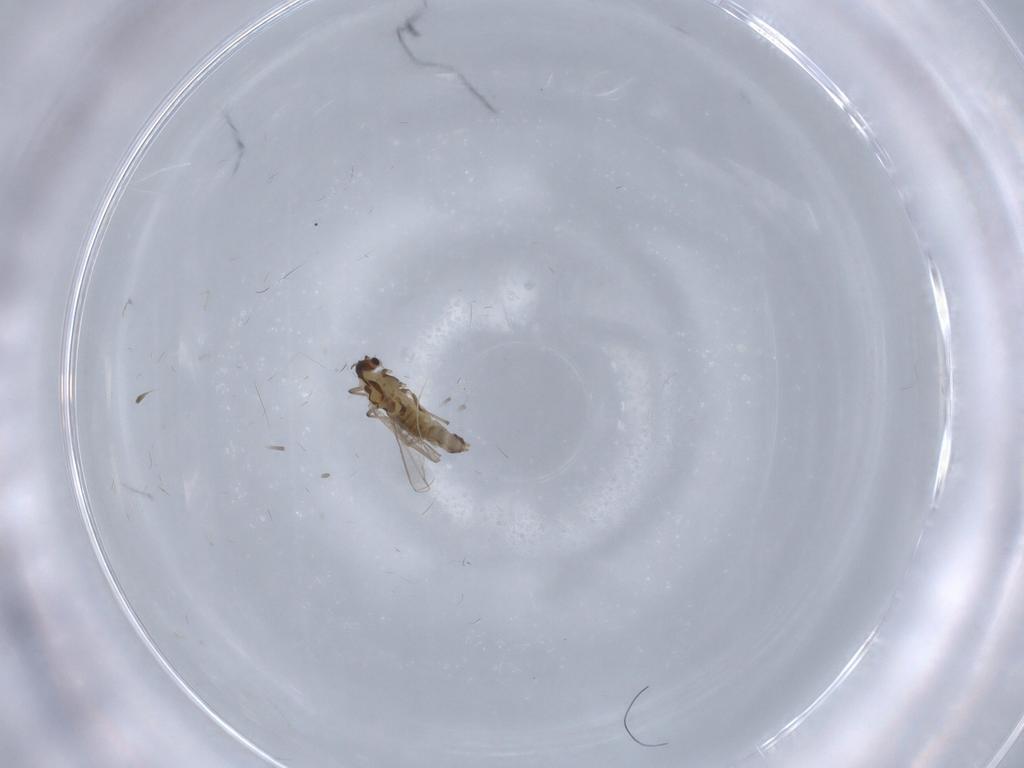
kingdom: Animalia
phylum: Arthropoda
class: Insecta
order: Diptera
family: Chironomidae
